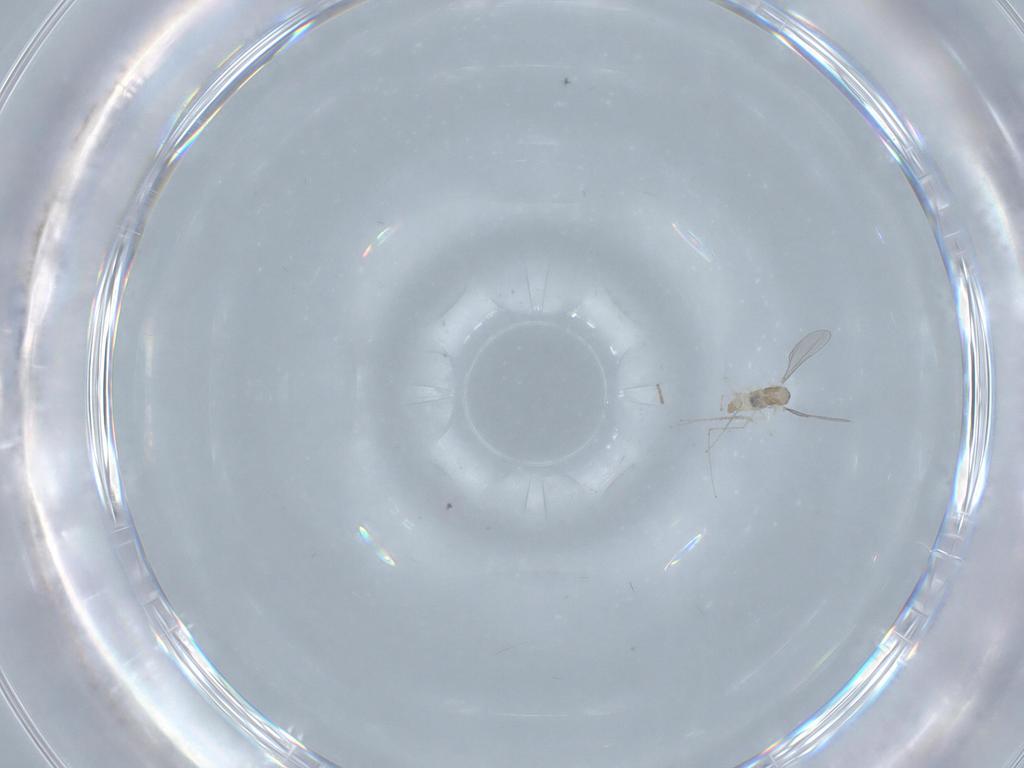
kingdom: Animalia
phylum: Arthropoda
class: Insecta
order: Diptera
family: Cecidomyiidae
